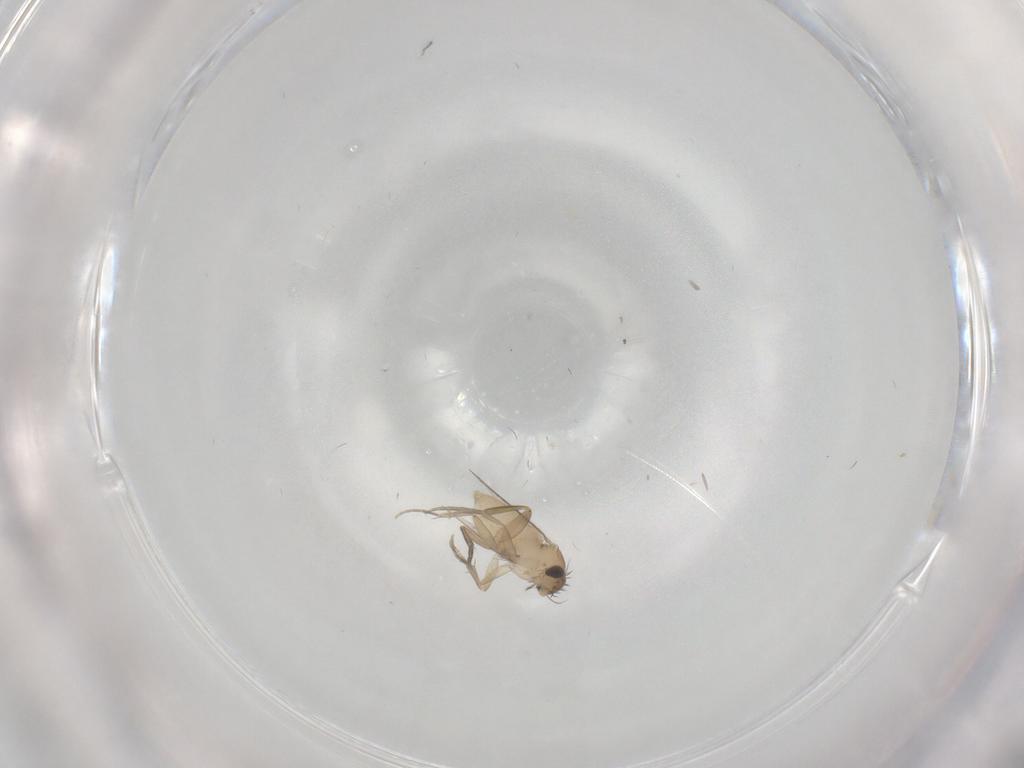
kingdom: Animalia
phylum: Arthropoda
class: Insecta
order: Diptera
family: Phoridae
